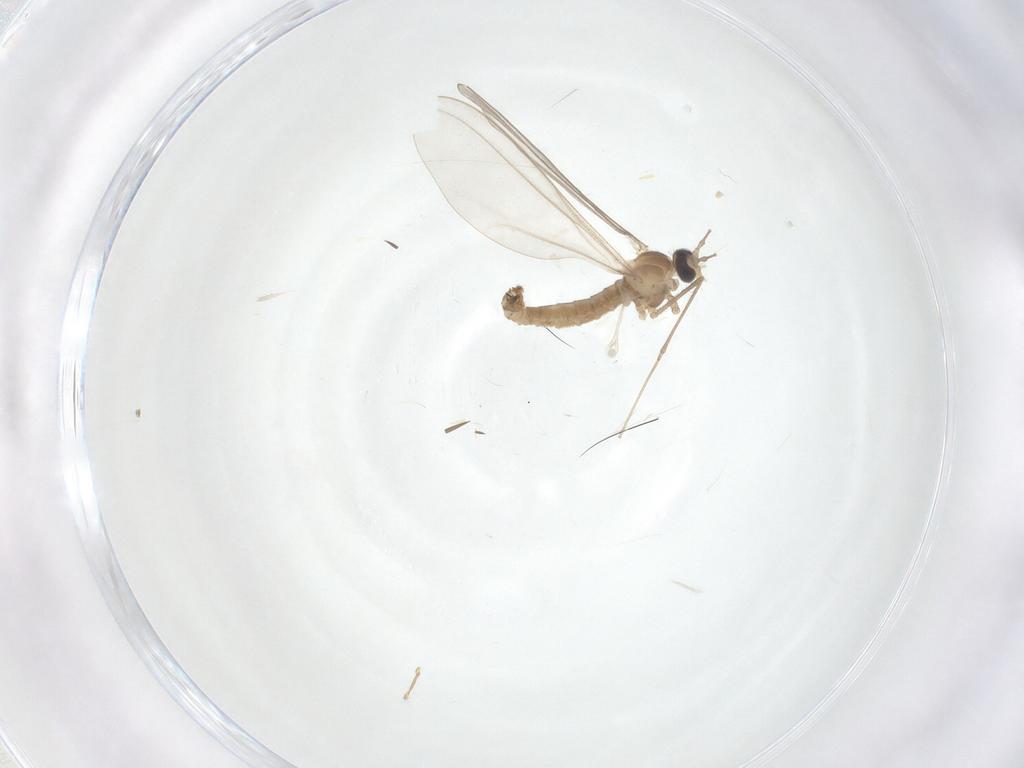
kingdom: Animalia
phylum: Arthropoda
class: Insecta
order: Diptera
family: Cecidomyiidae
